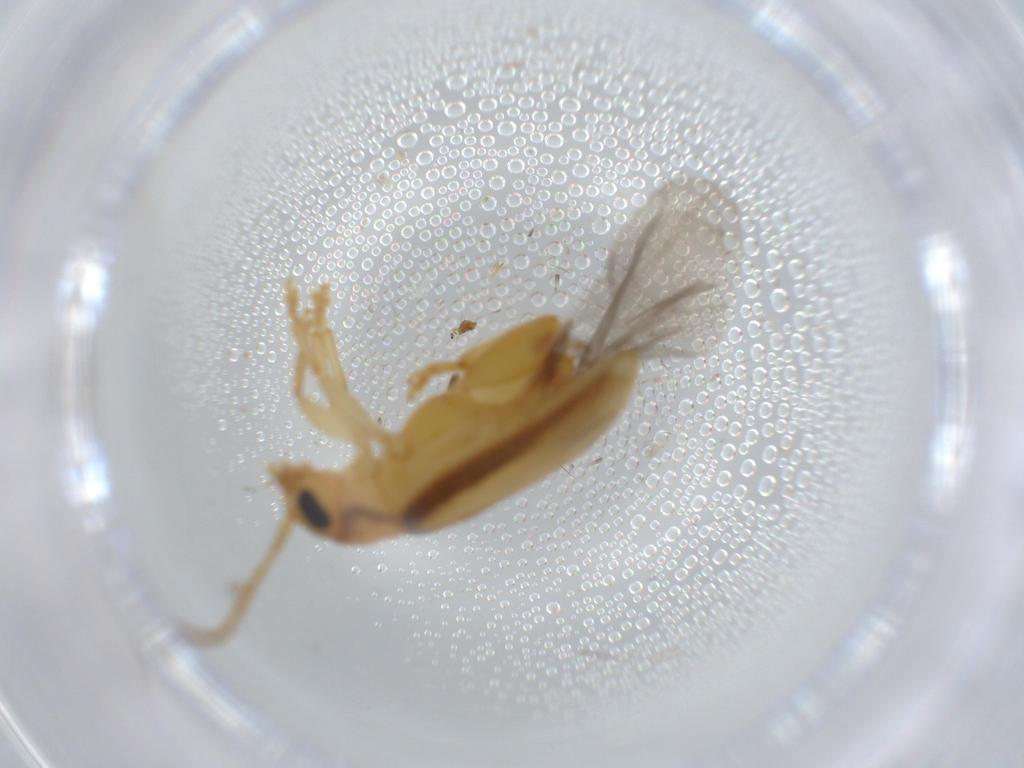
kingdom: Animalia
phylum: Arthropoda
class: Insecta
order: Coleoptera
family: Chrysomelidae
